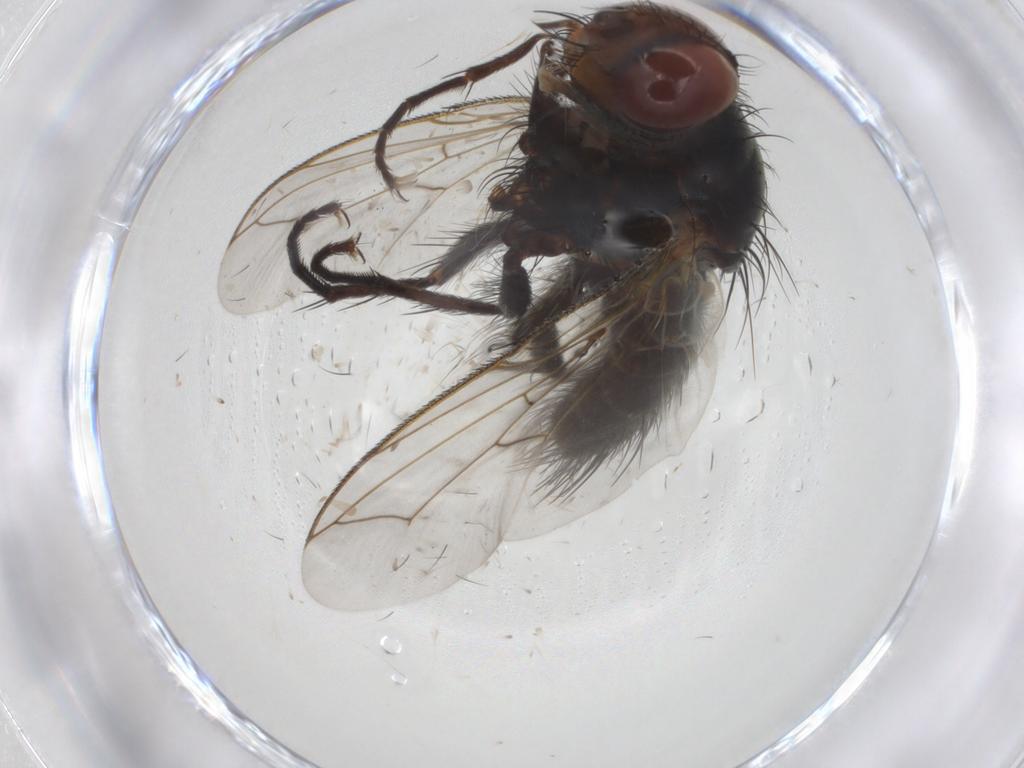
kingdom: Animalia
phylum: Arthropoda
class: Insecta
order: Diptera
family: Tachinidae
